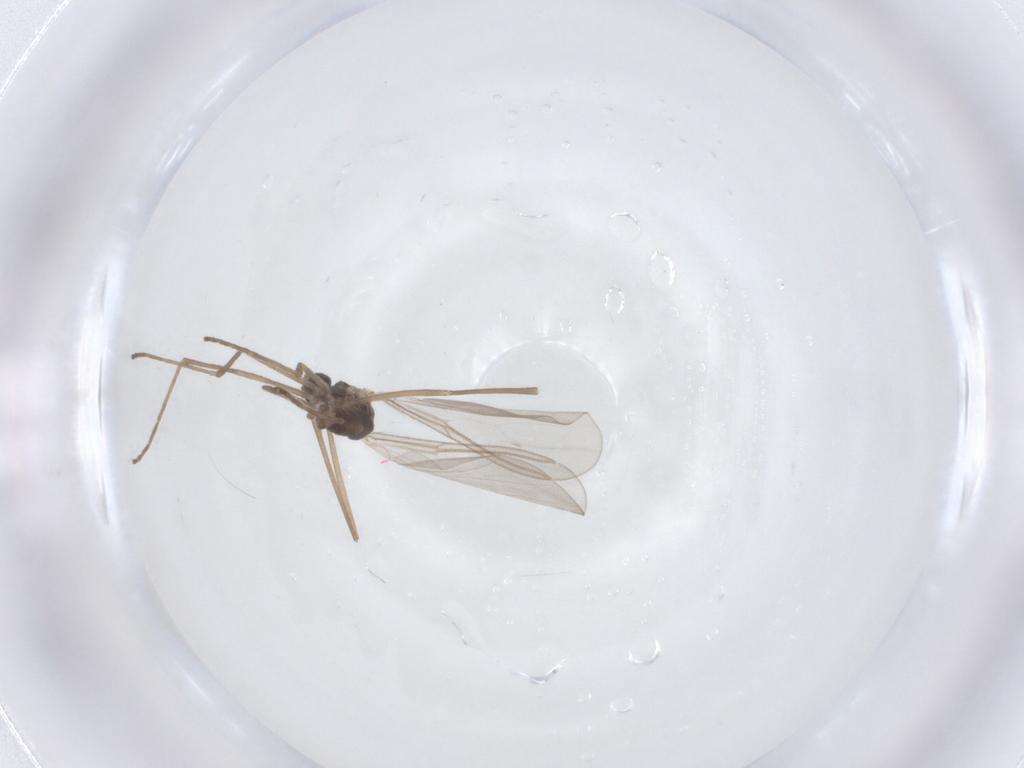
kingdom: Animalia
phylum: Arthropoda
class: Insecta
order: Diptera
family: Cecidomyiidae
